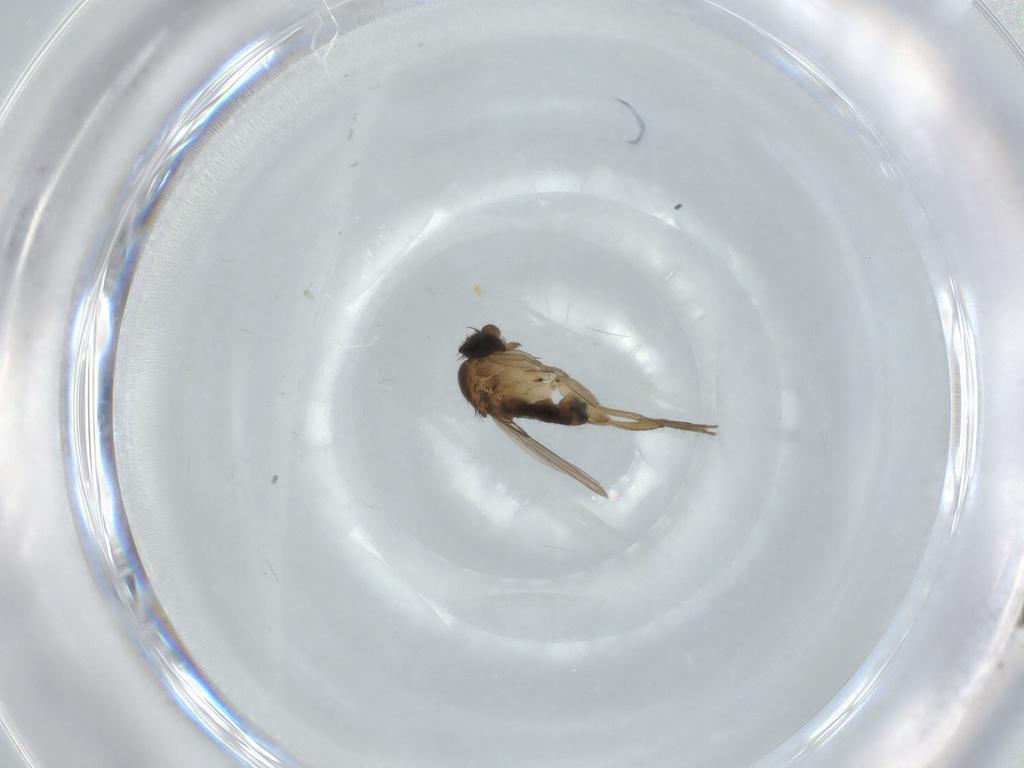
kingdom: Animalia
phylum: Arthropoda
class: Insecta
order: Diptera
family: Phoridae
